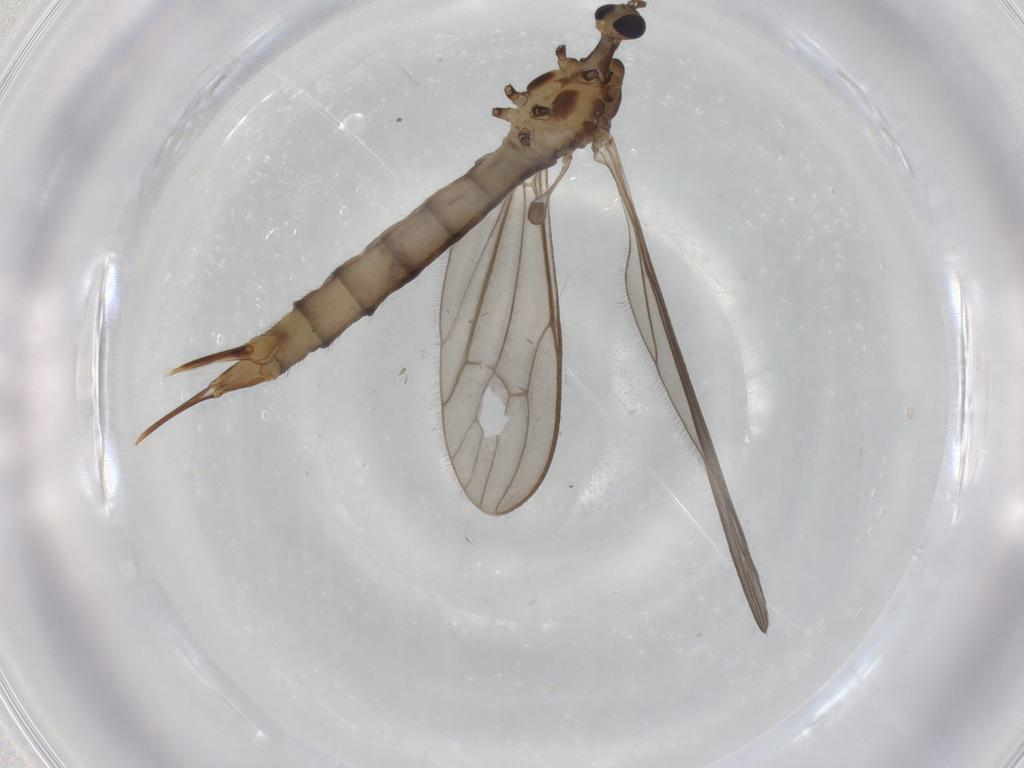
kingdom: Animalia
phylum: Arthropoda
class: Insecta
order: Diptera
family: Limoniidae
